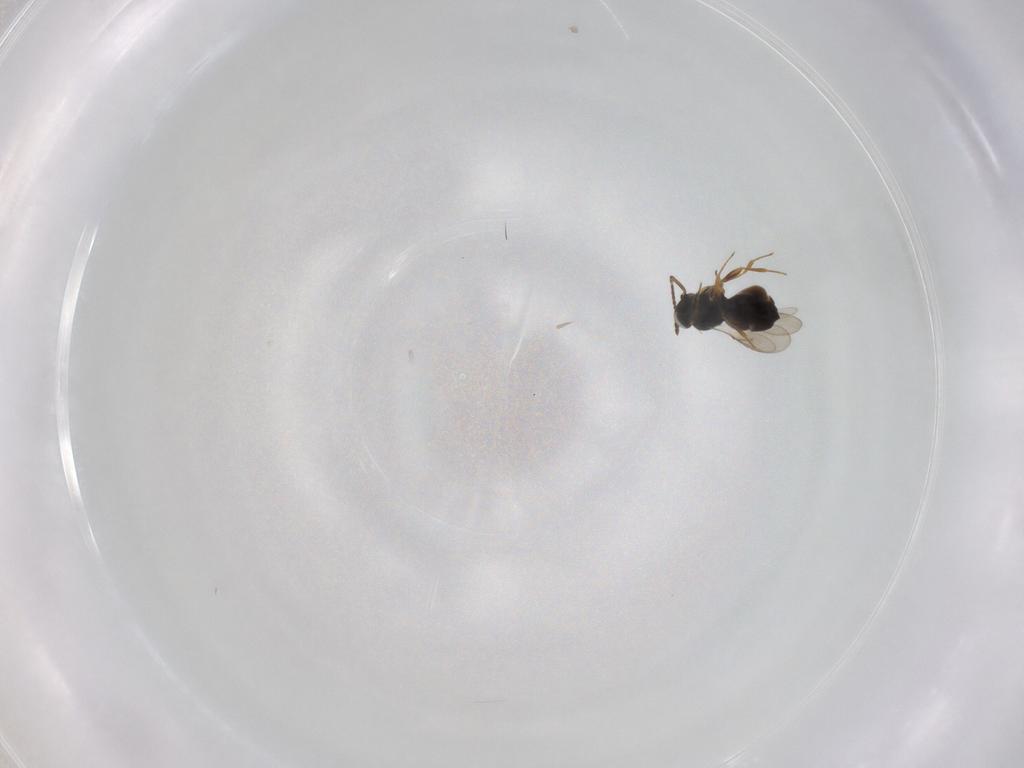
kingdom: Animalia
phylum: Arthropoda
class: Insecta
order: Hymenoptera
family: Scelionidae
